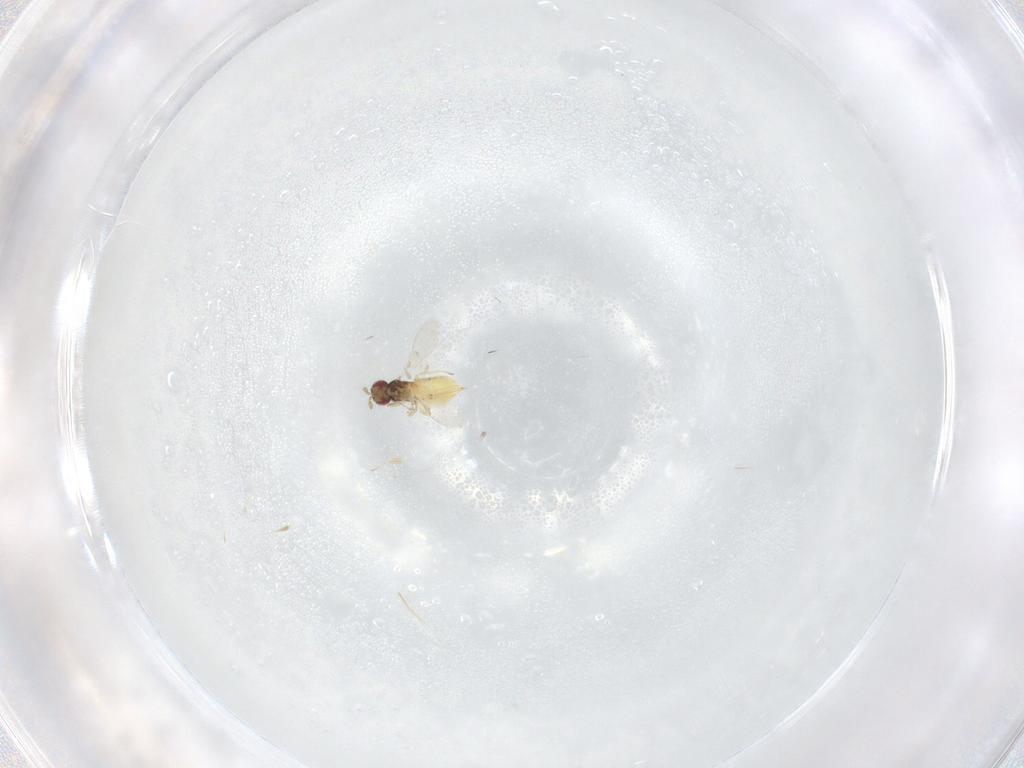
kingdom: Animalia
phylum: Arthropoda
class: Insecta
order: Hymenoptera
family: Trichogrammatidae
